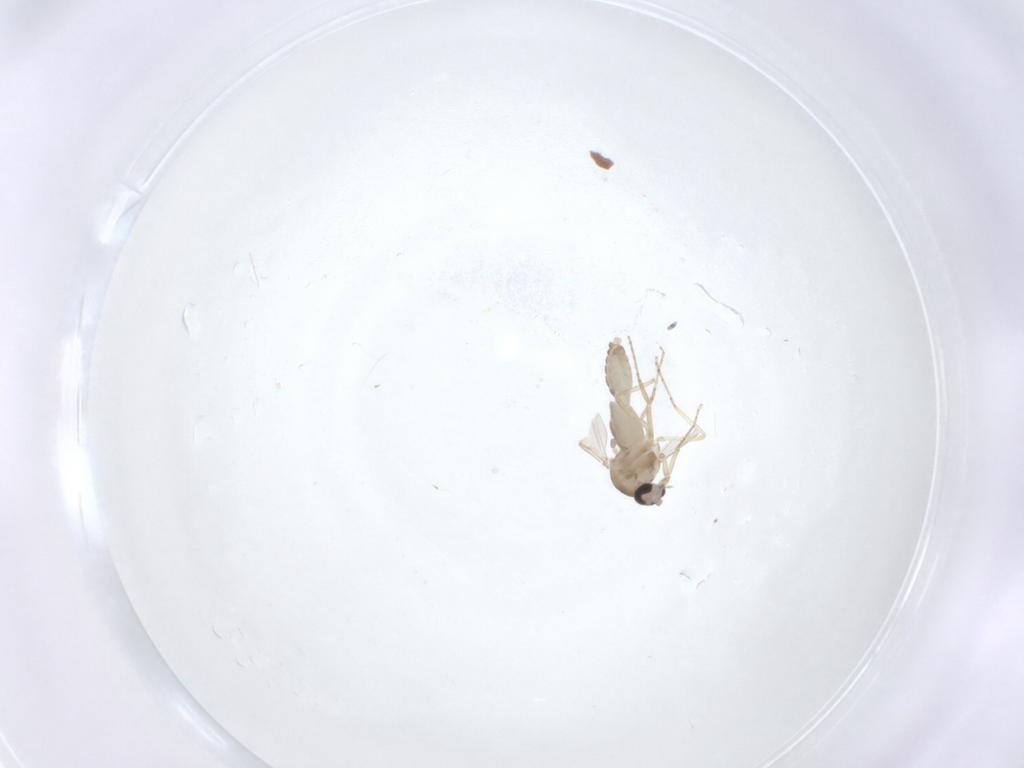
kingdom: Animalia
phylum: Arthropoda
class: Insecta
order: Diptera
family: Ceratopogonidae
